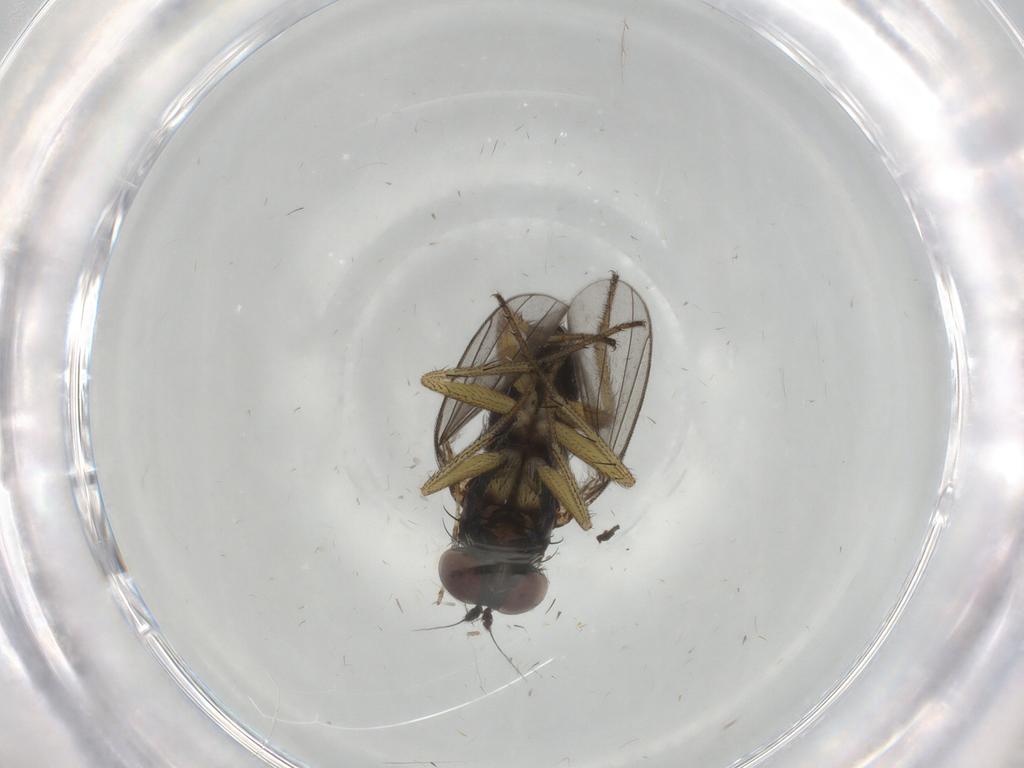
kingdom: Animalia
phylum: Arthropoda
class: Insecta
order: Diptera
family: Dolichopodidae
